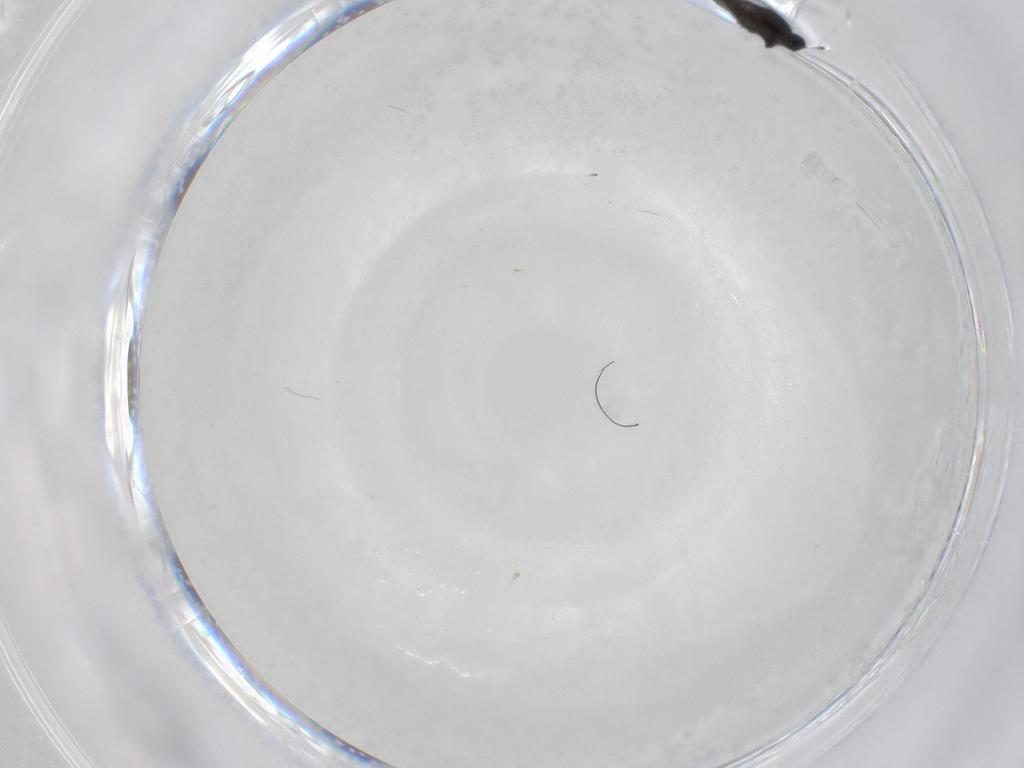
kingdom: Animalia
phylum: Arthropoda
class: Insecta
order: Diptera
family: Cecidomyiidae
